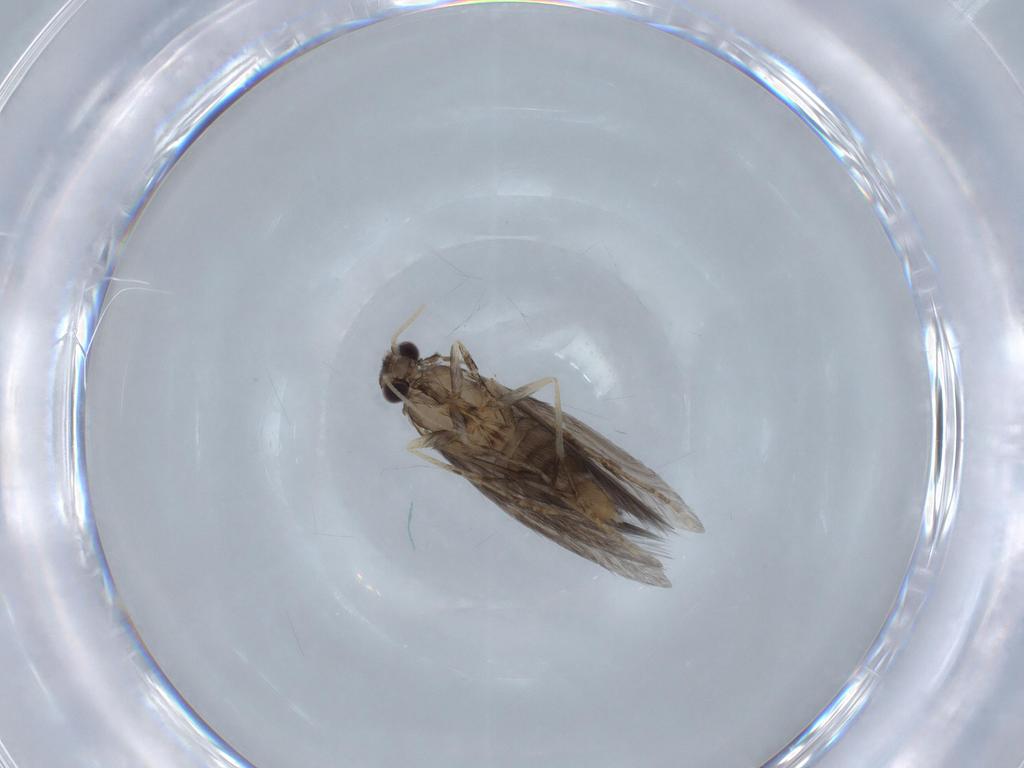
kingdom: Animalia
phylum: Arthropoda
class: Insecta
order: Trichoptera
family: Hydroptilidae
